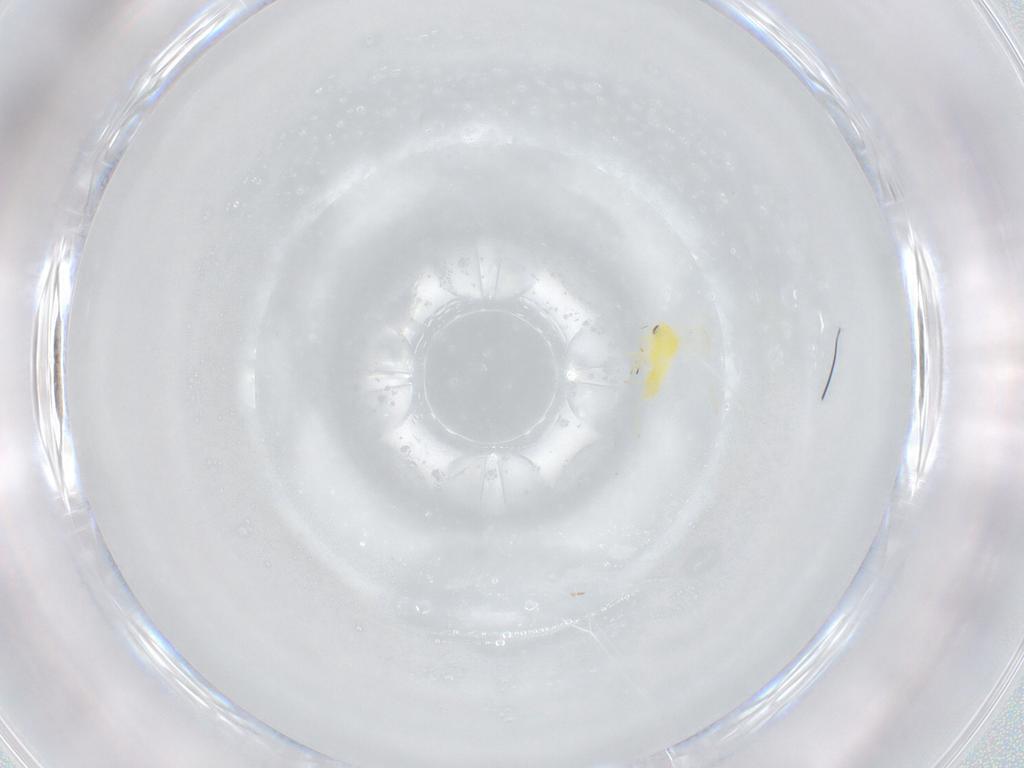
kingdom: Animalia
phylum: Arthropoda
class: Insecta
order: Hemiptera
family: Aleyrodidae
